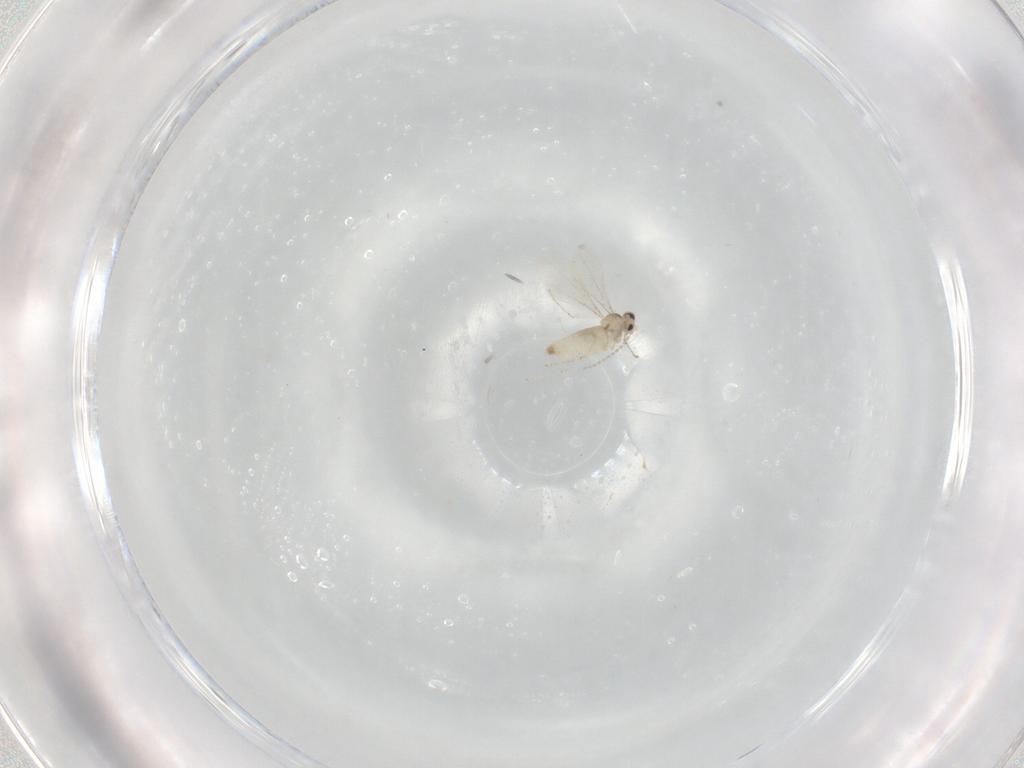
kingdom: Animalia
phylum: Arthropoda
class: Insecta
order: Diptera
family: Cecidomyiidae
